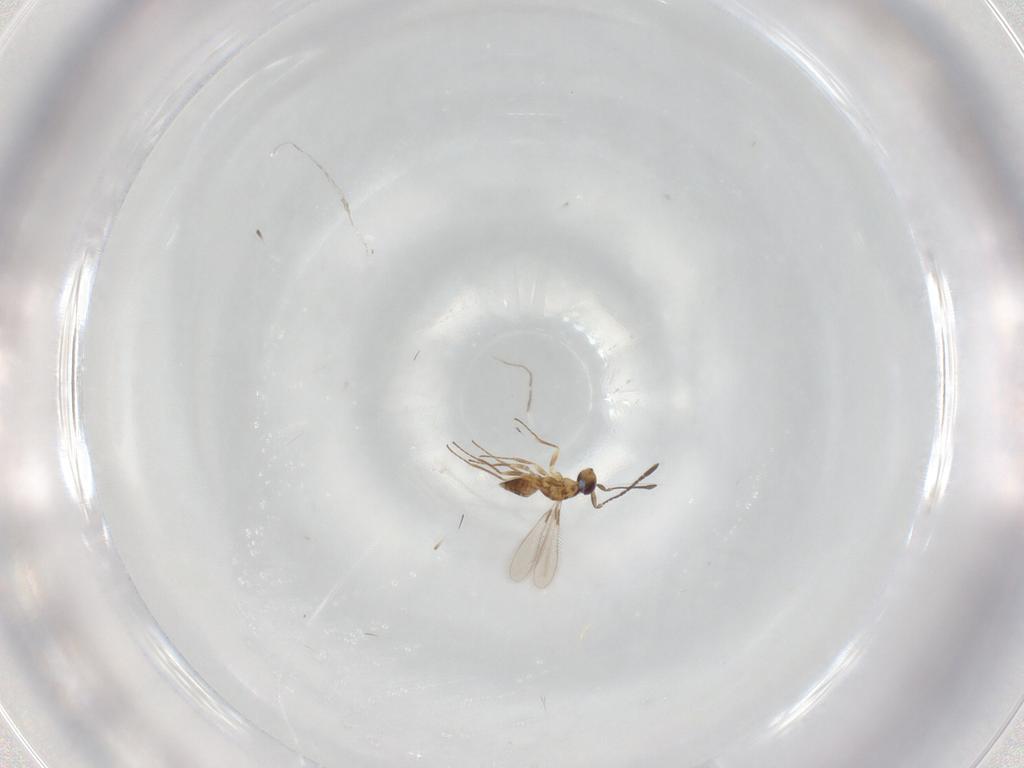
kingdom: Animalia
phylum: Arthropoda
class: Insecta
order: Hymenoptera
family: Mymaridae
